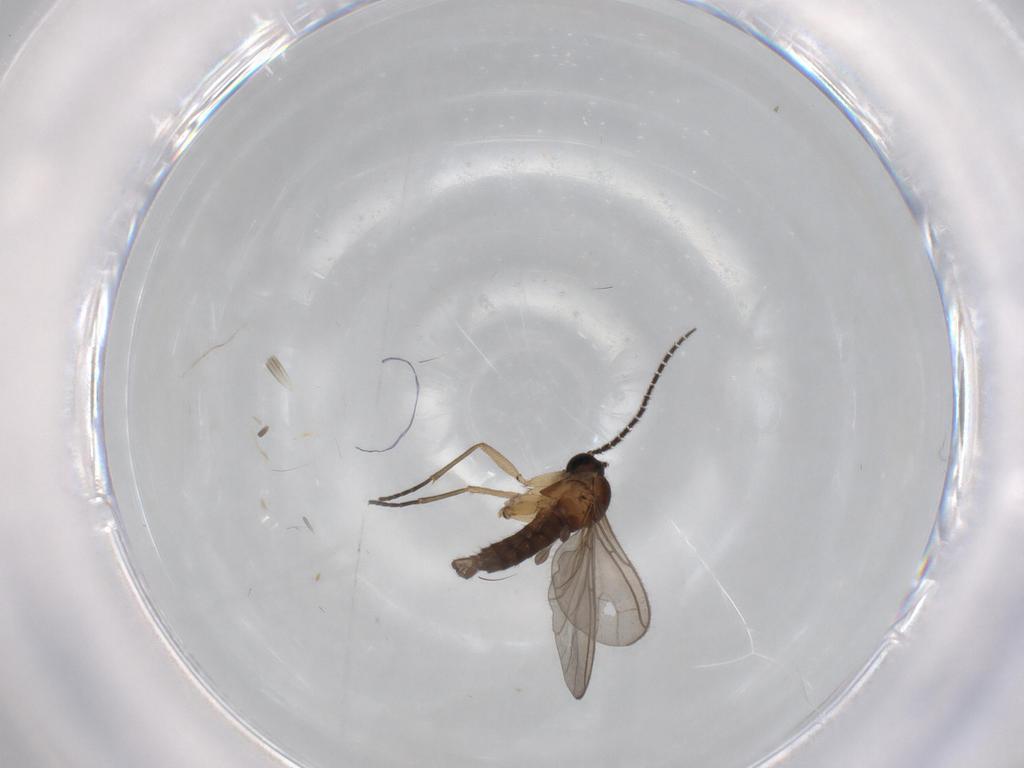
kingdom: Animalia
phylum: Arthropoda
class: Insecta
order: Diptera
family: Sciaridae
